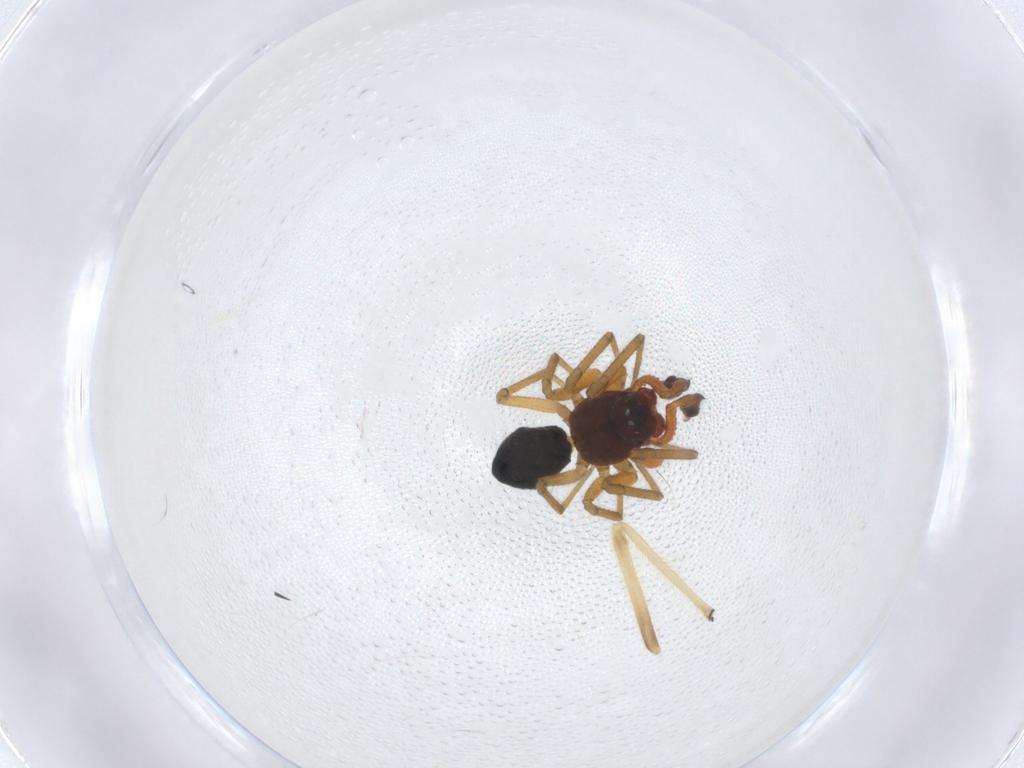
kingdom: Animalia
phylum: Arthropoda
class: Arachnida
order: Araneae
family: Linyphiidae
